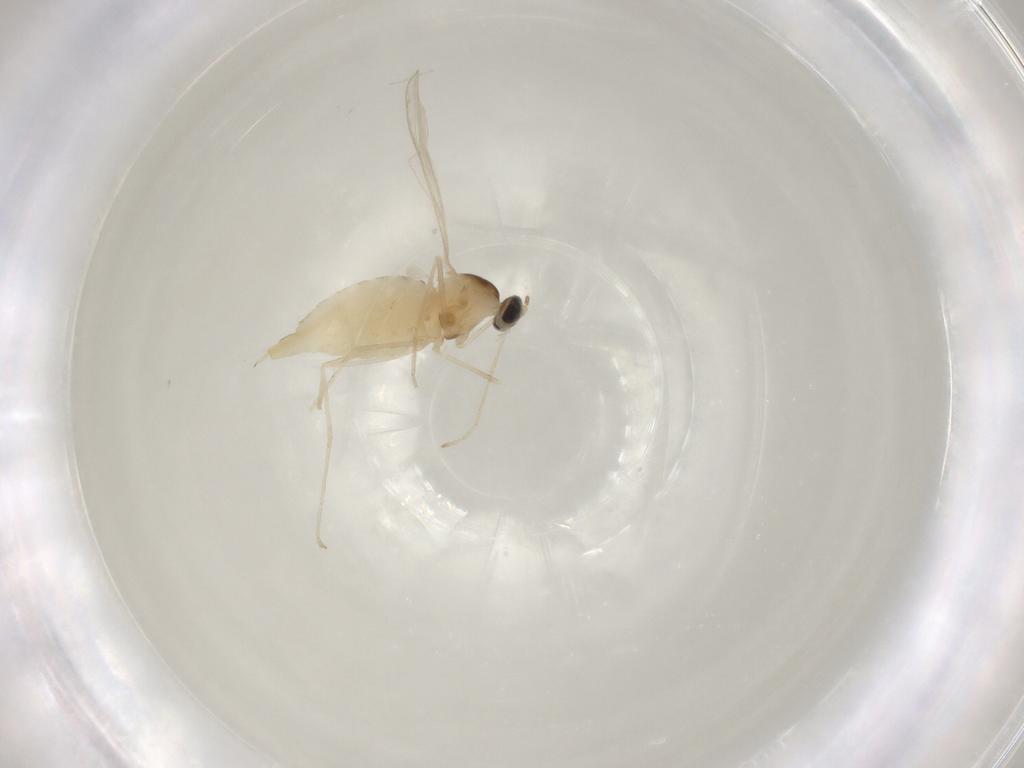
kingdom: Animalia
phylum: Arthropoda
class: Insecta
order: Diptera
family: Cecidomyiidae
